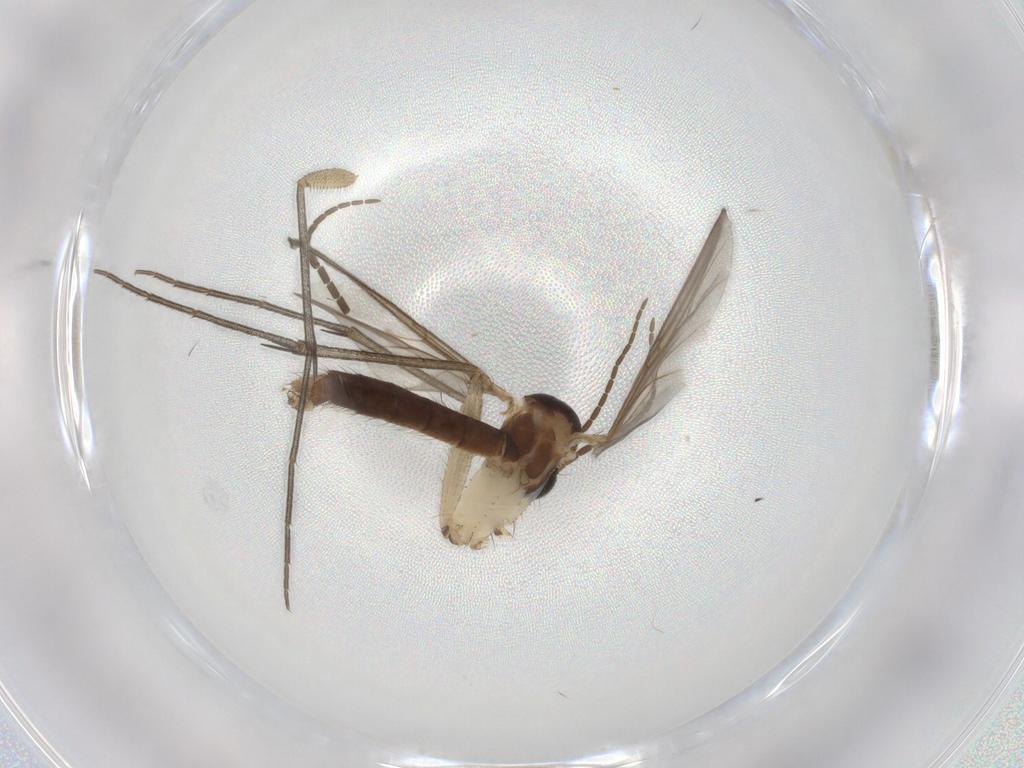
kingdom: Animalia
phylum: Arthropoda
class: Insecta
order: Diptera
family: Mycetophilidae
